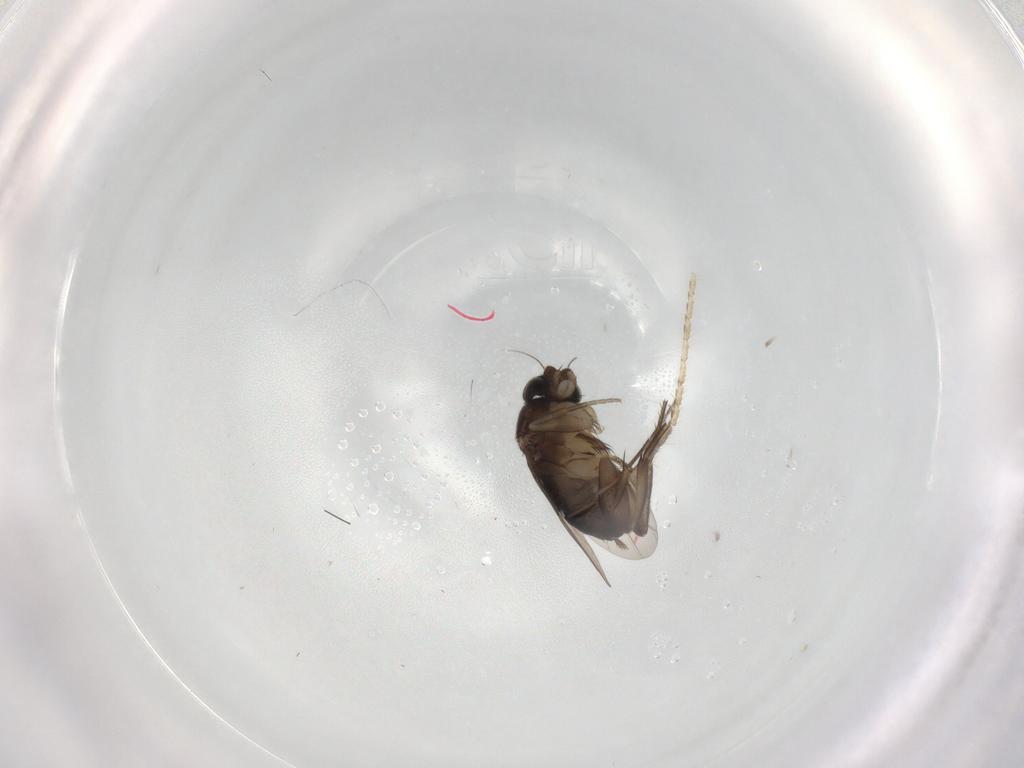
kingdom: Animalia
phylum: Arthropoda
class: Insecta
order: Diptera
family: Phoridae
